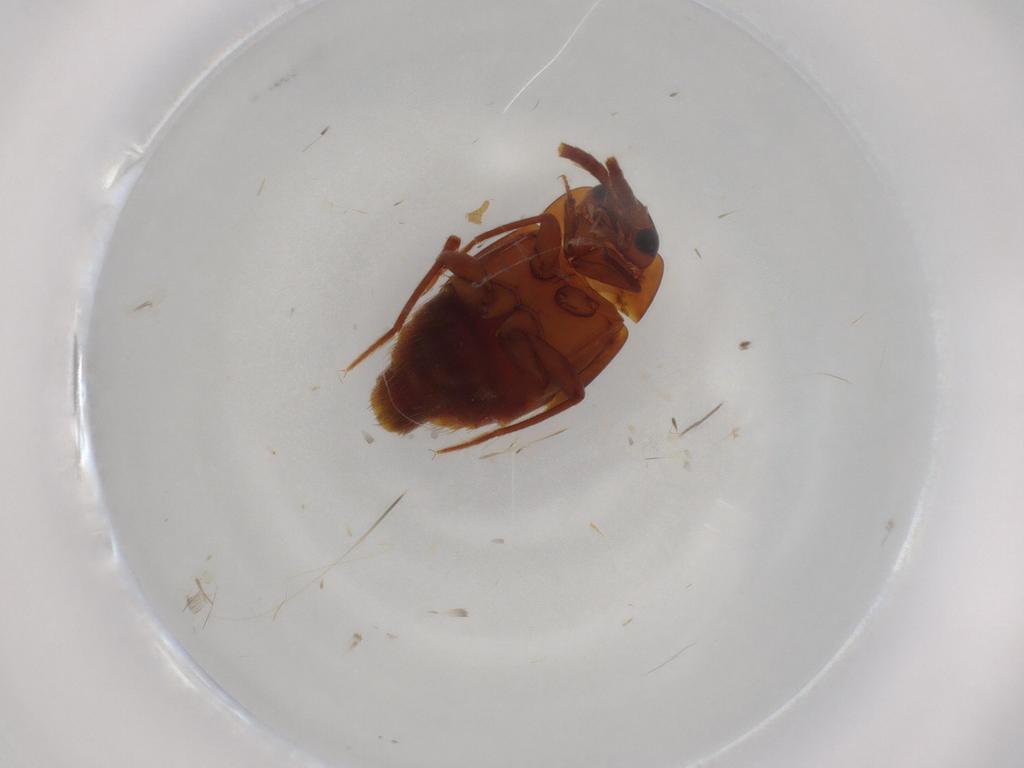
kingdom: Animalia
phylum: Arthropoda
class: Insecta
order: Coleoptera
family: Staphylinidae
